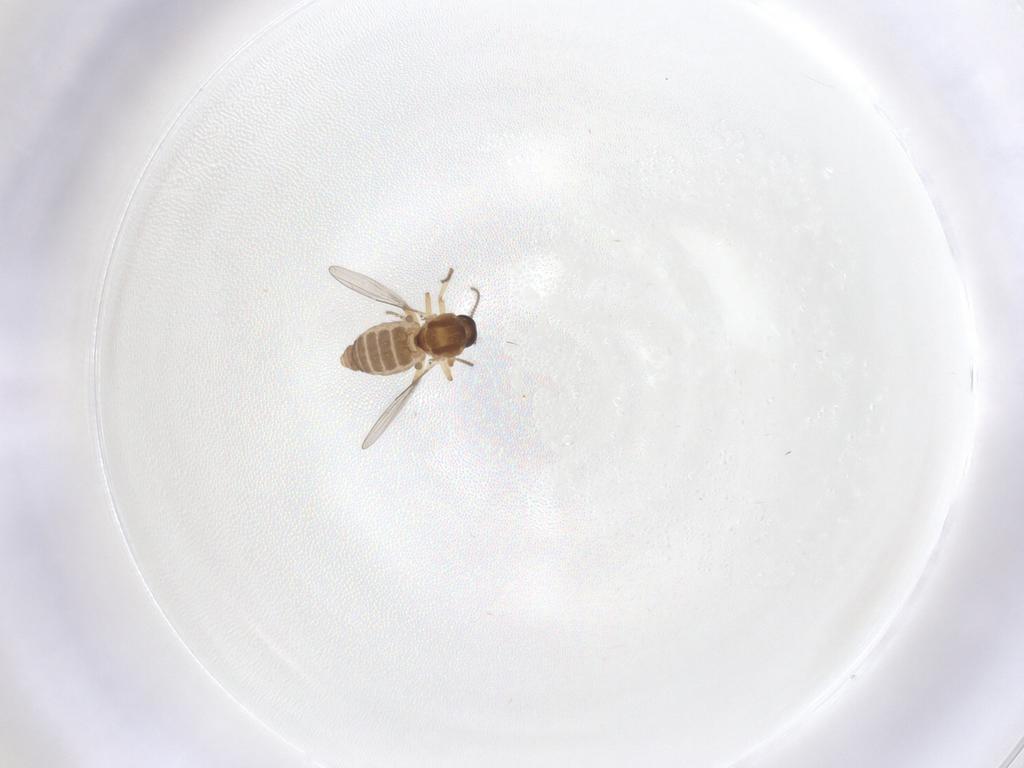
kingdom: Animalia
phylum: Arthropoda
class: Insecta
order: Diptera
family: Ceratopogonidae
